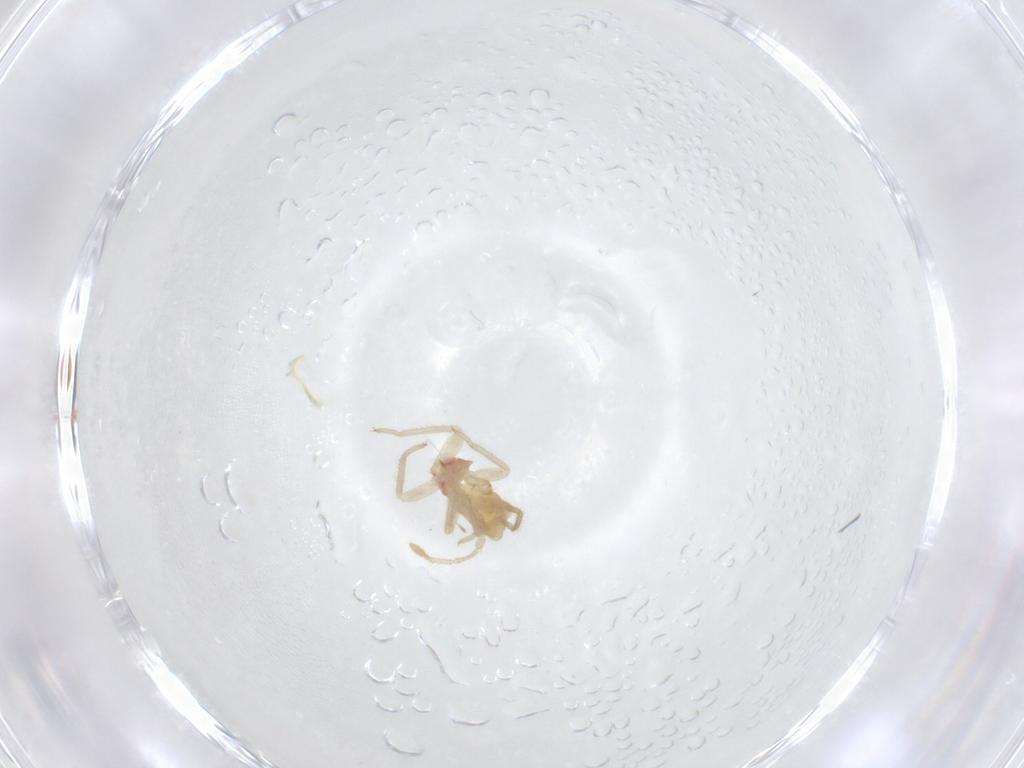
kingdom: Animalia
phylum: Arthropoda
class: Insecta
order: Hemiptera
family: Miridae
